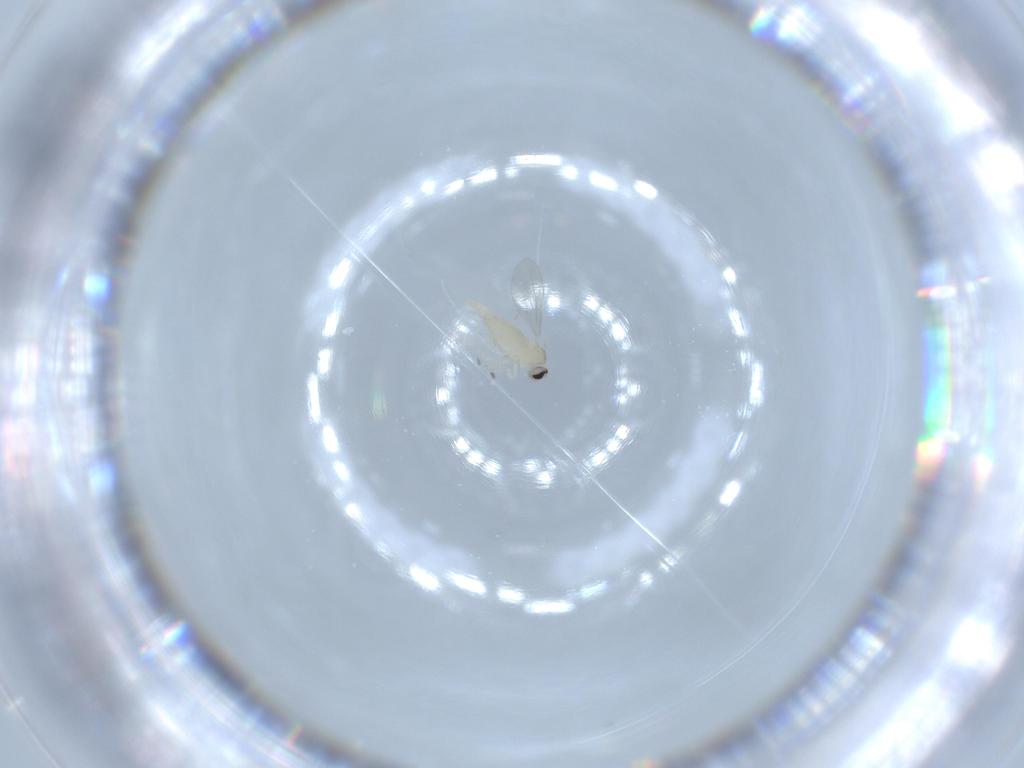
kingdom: Animalia
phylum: Arthropoda
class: Insecta
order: Diptera
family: Cecidomyiidae
